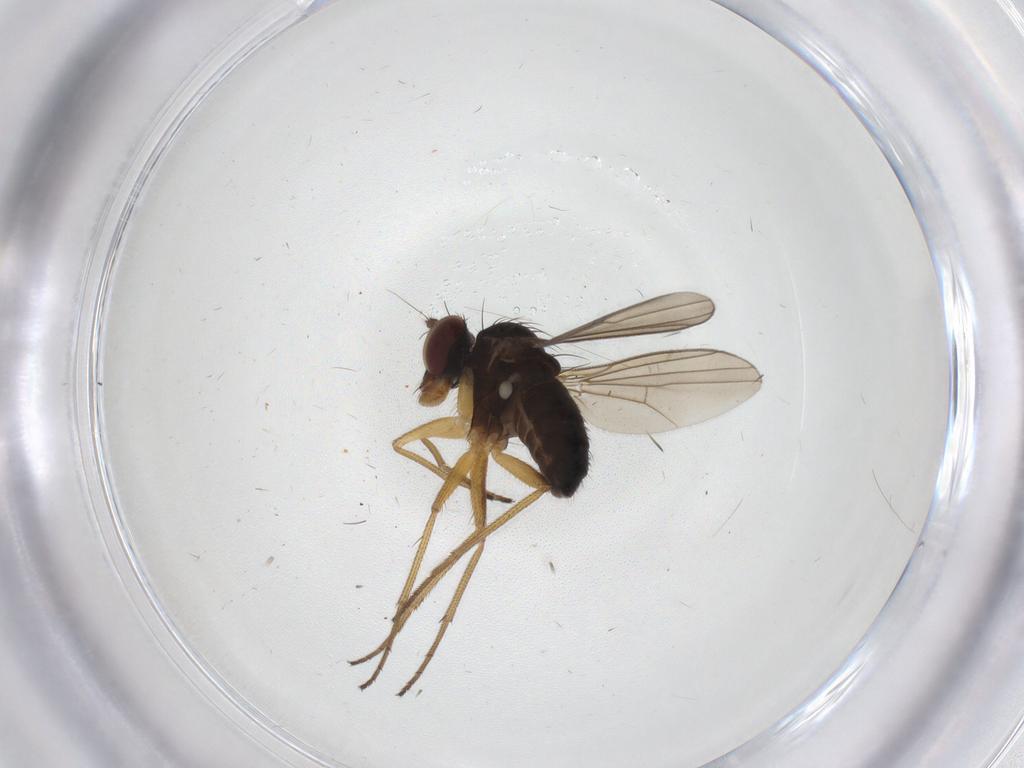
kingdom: Animalia
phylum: Arthropoda
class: Insecta
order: Diptera
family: Dolichopodidae
